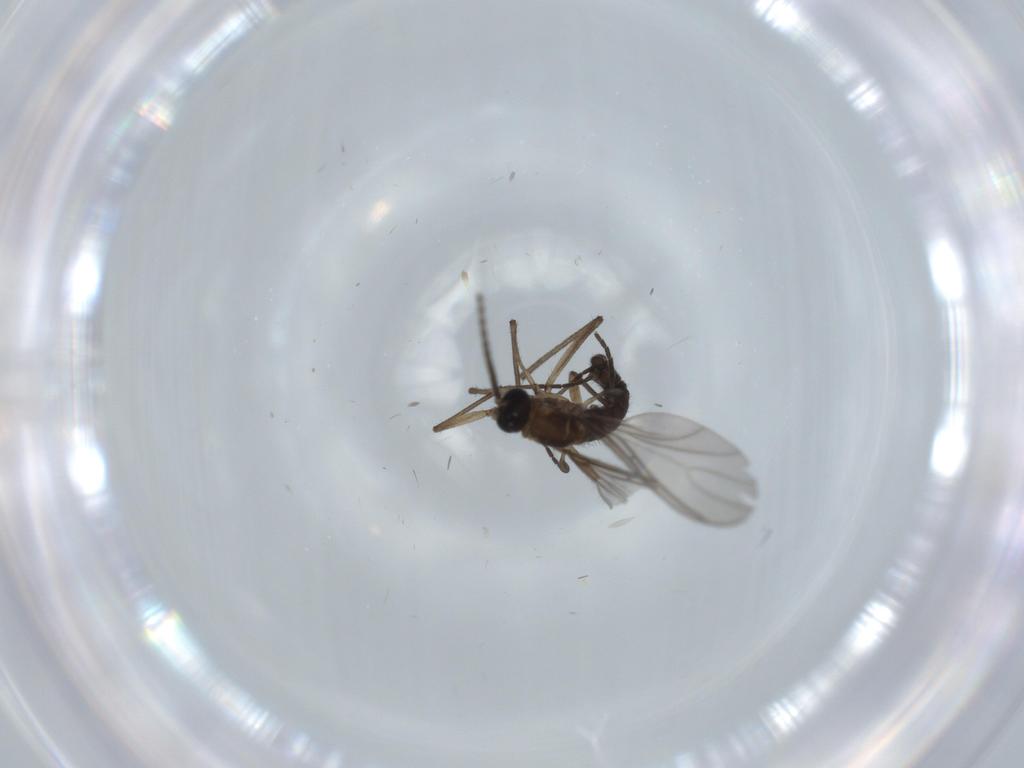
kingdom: Animalia
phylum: Arthropoda
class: Insecta
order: Diptera
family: Sciaridae
